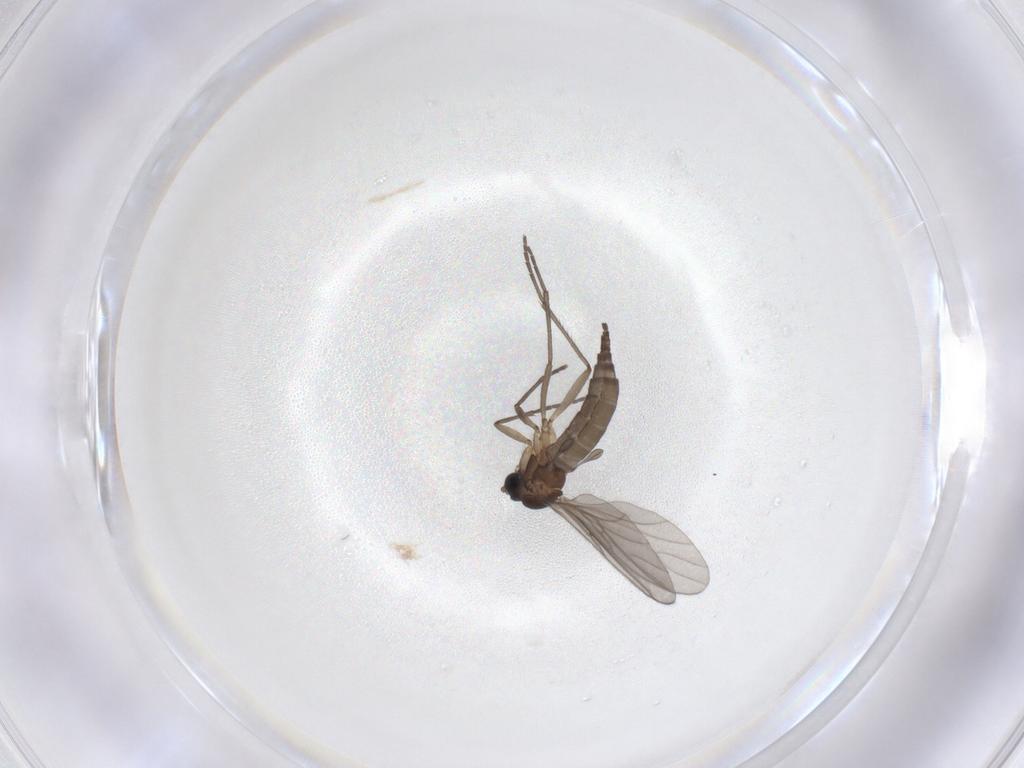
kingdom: Animalia
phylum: Arthropoda
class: Insecta
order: Diptera
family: Sciaridae
